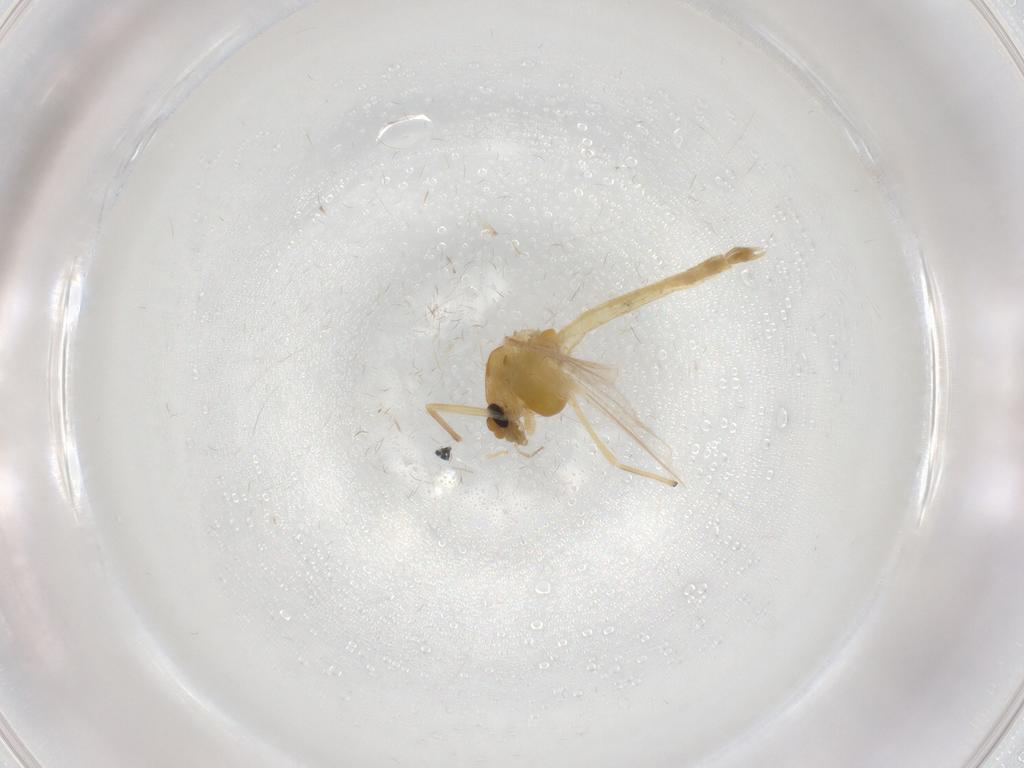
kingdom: Animalia
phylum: Arthropoda
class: Insecta
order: Diptera
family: Chironomidae
